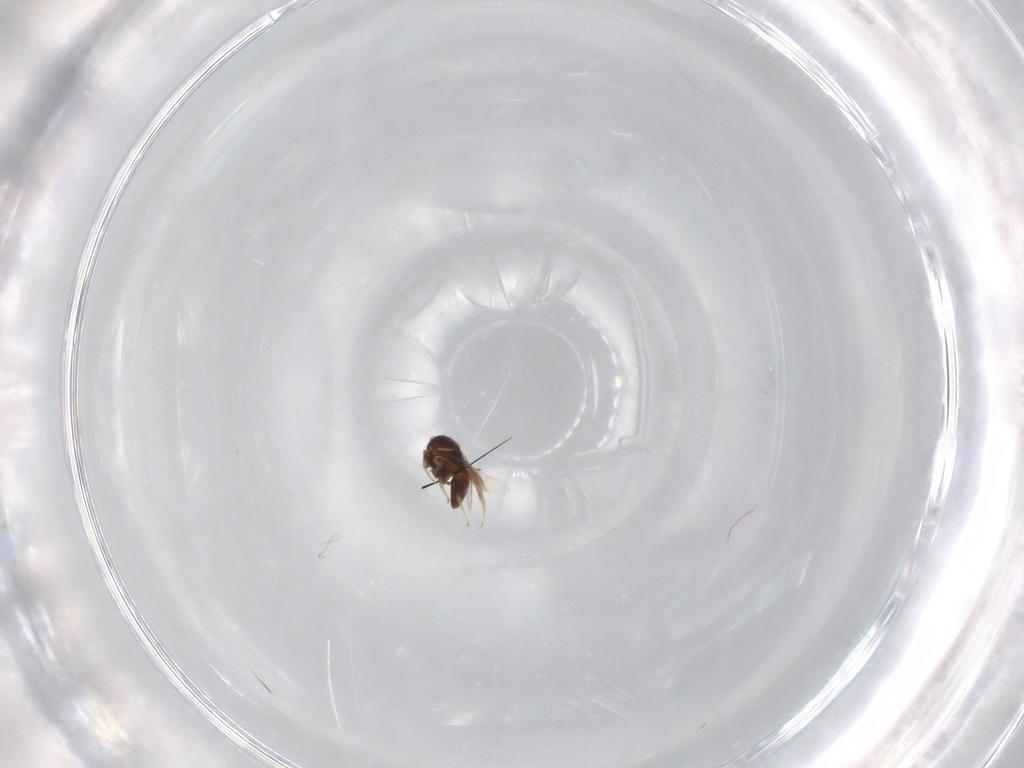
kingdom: Animalia
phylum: Arthropoda
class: Insecta
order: Hymenoptera
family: Scelionidae
